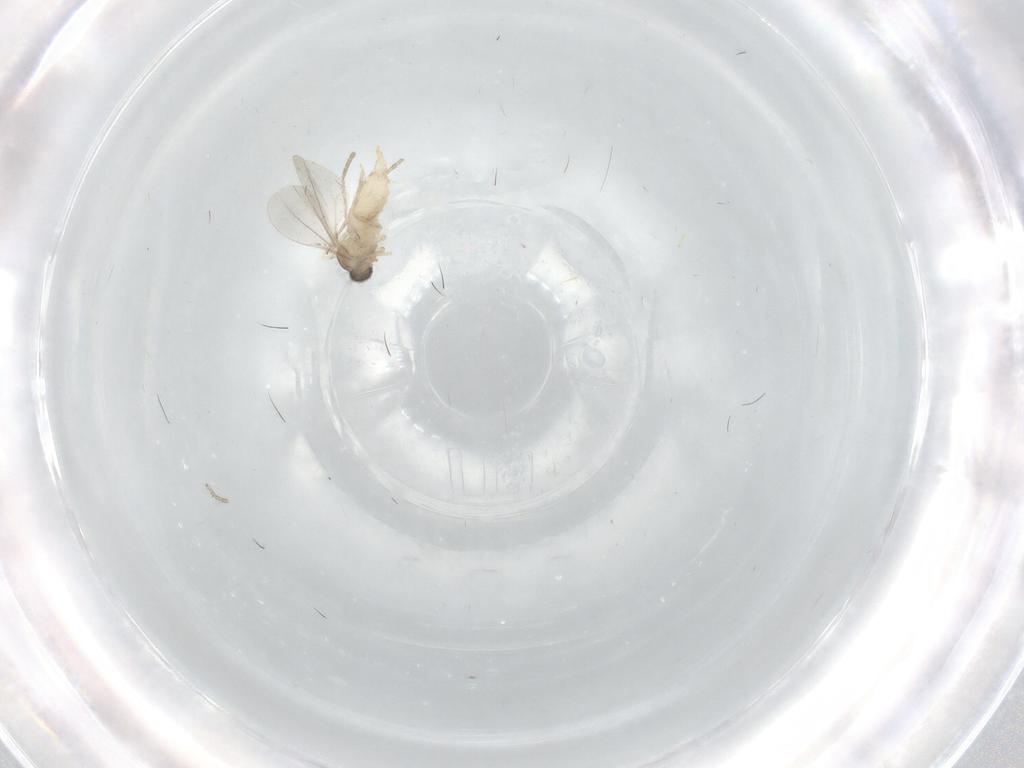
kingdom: Animalia
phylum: Arthropoda
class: Insecta
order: Diptera
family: Cecidomyiidae
